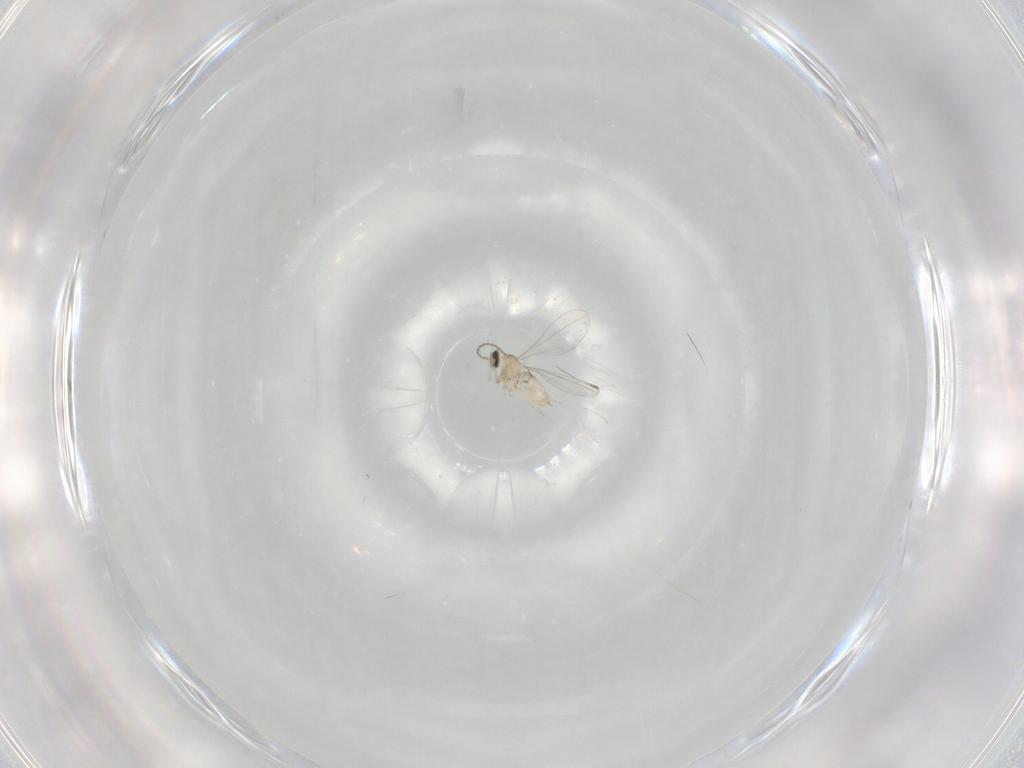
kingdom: Animalia
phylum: Arthropoda
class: Insecta
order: Diptera
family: Cecidomyiidae
